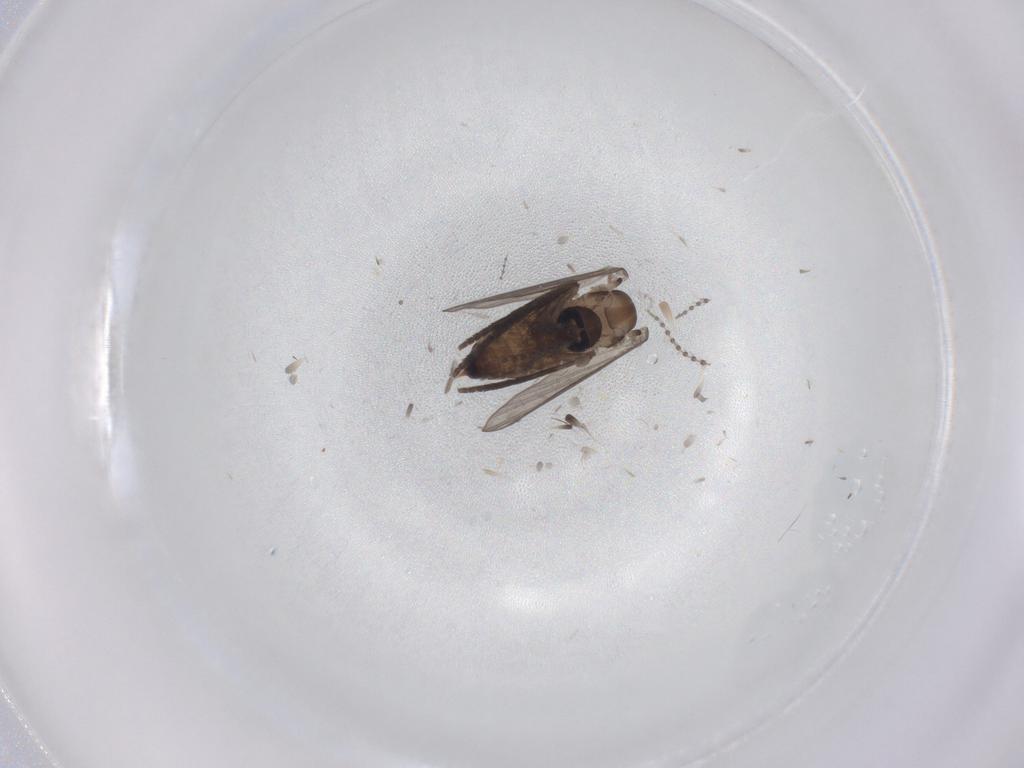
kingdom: Animalia
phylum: Arthropoda
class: Insecta
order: Diptera
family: Psychodidae
